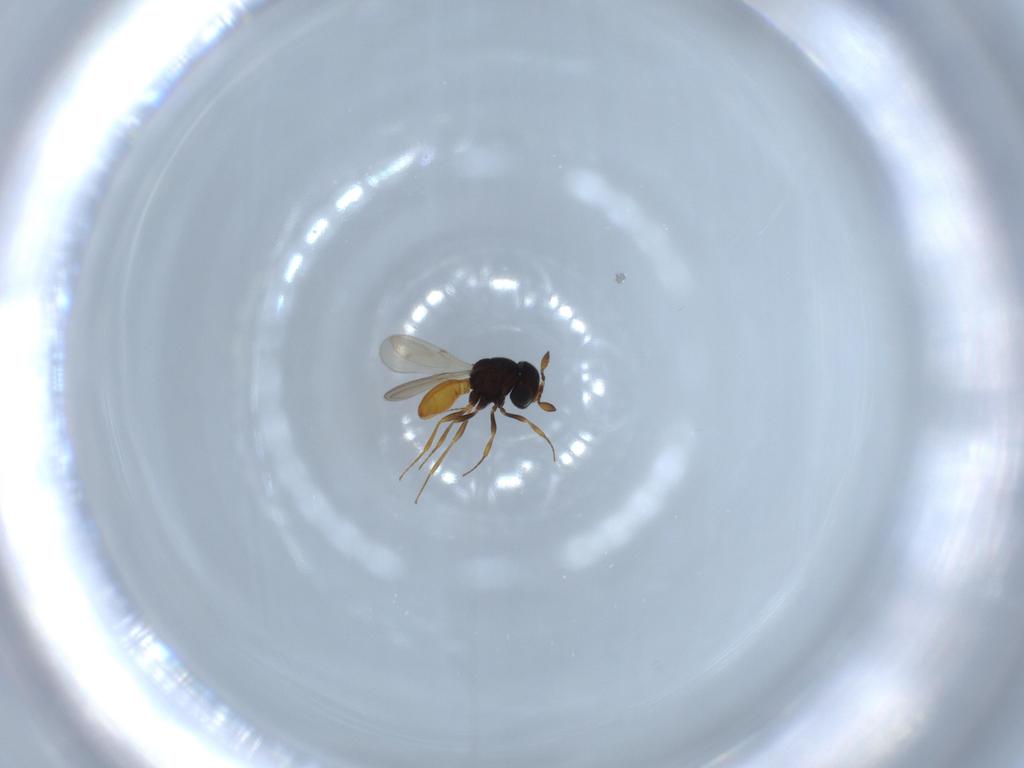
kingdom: Animalia
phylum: Arthropoda
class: Insecta
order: Hymenoptera
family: Scelionidae
